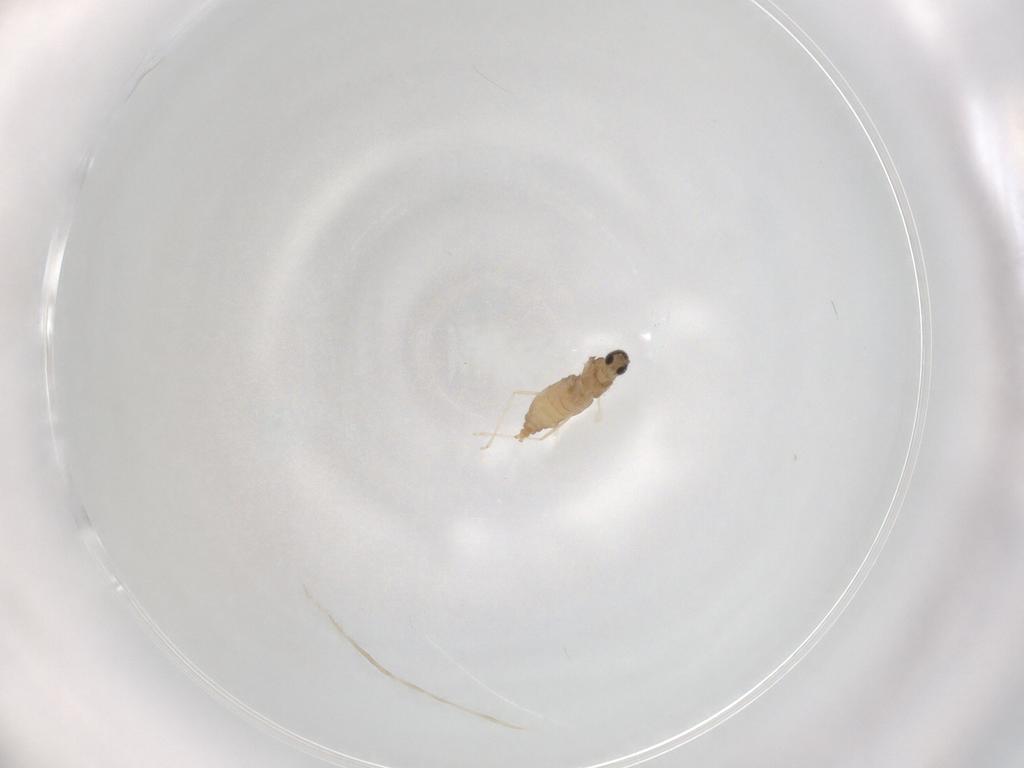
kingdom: Animalia
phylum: Arthropoda
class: Insecta
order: Diptera
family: Cecidomyiidae
